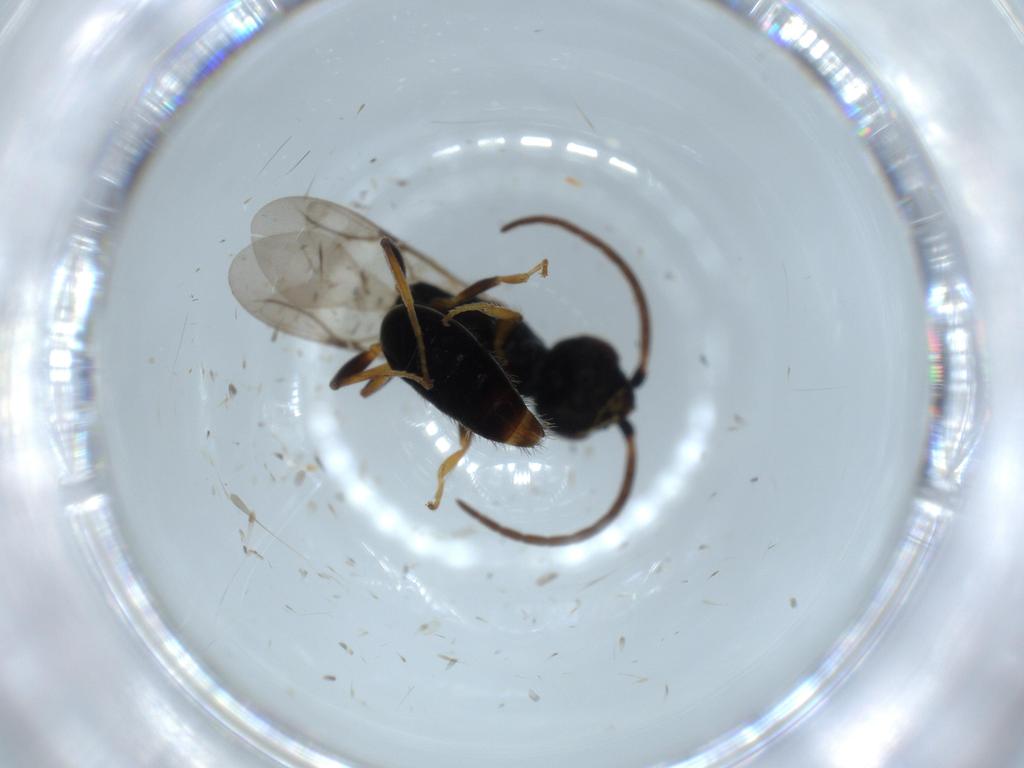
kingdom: Animalia
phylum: Arthropoda
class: Insecta
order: Hymenoptera
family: Bethylidae
